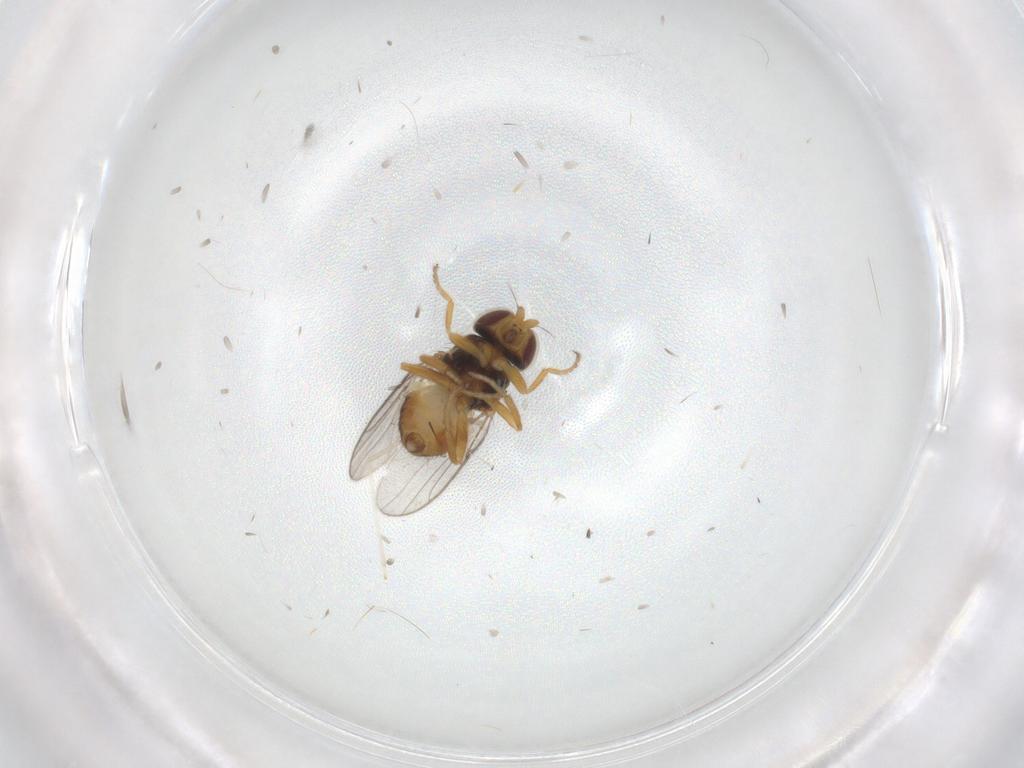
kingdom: Animalia
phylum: Arthropoda
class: Insecta
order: Diptera
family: Chloropidae
